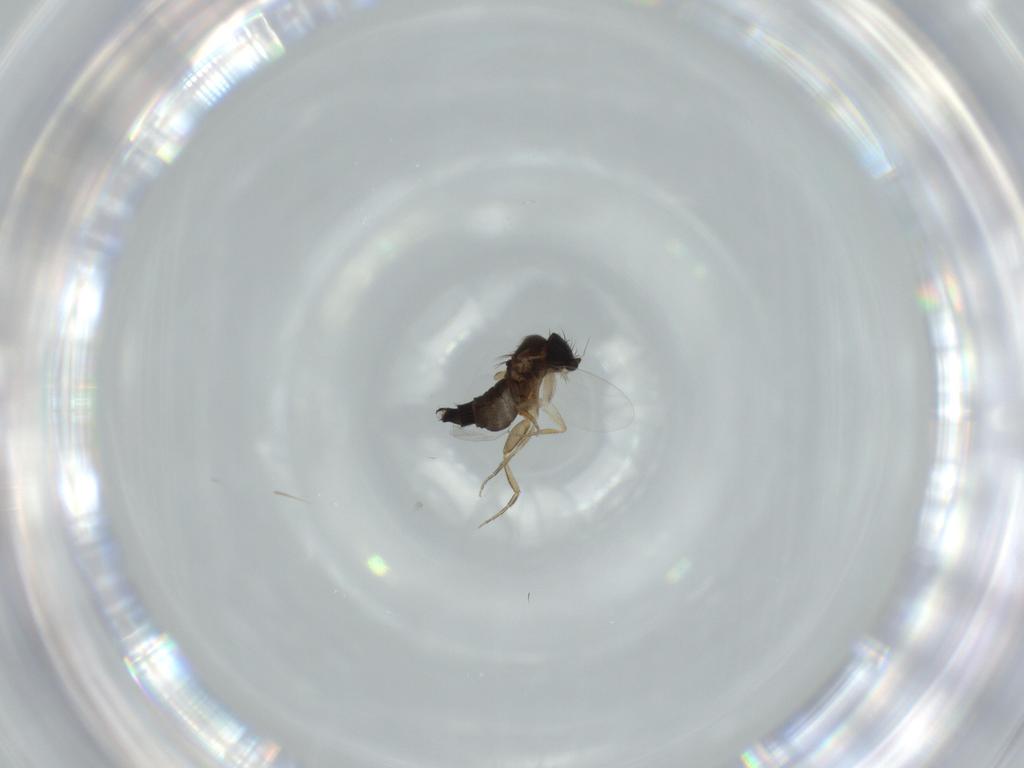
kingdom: Animalia
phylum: Arthropoda
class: Insecta
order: Diptera
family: Phoridae
